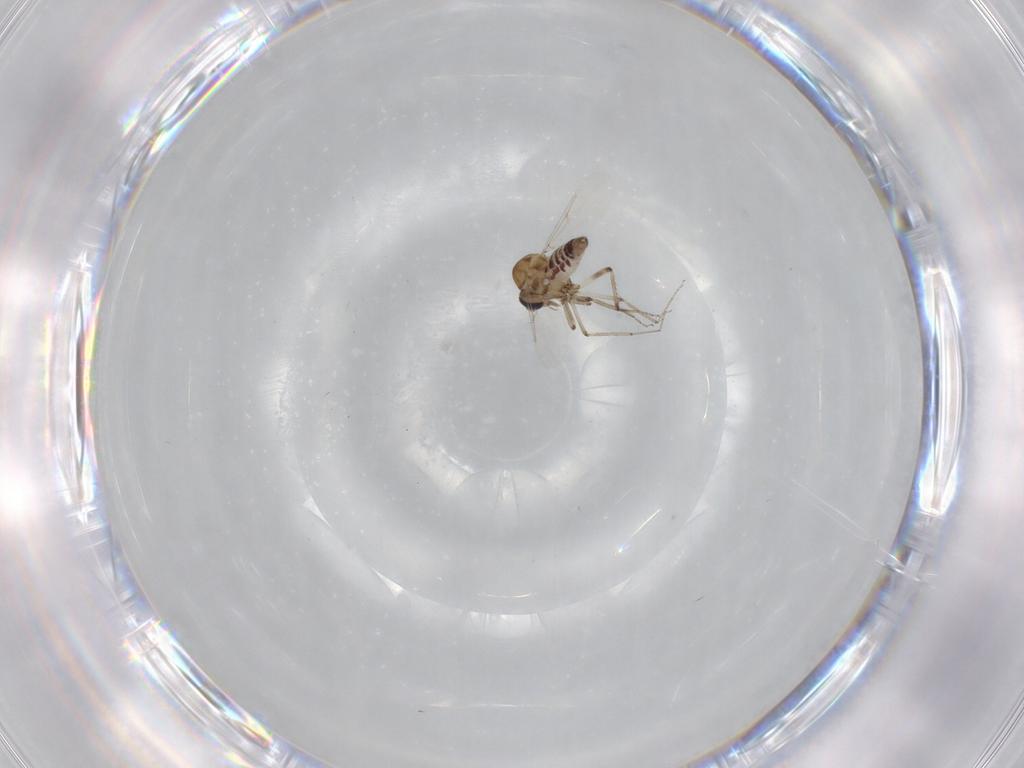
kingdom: Animalia
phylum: Arthropoda
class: Insecta
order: Diptera
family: Ceratopogonidae
